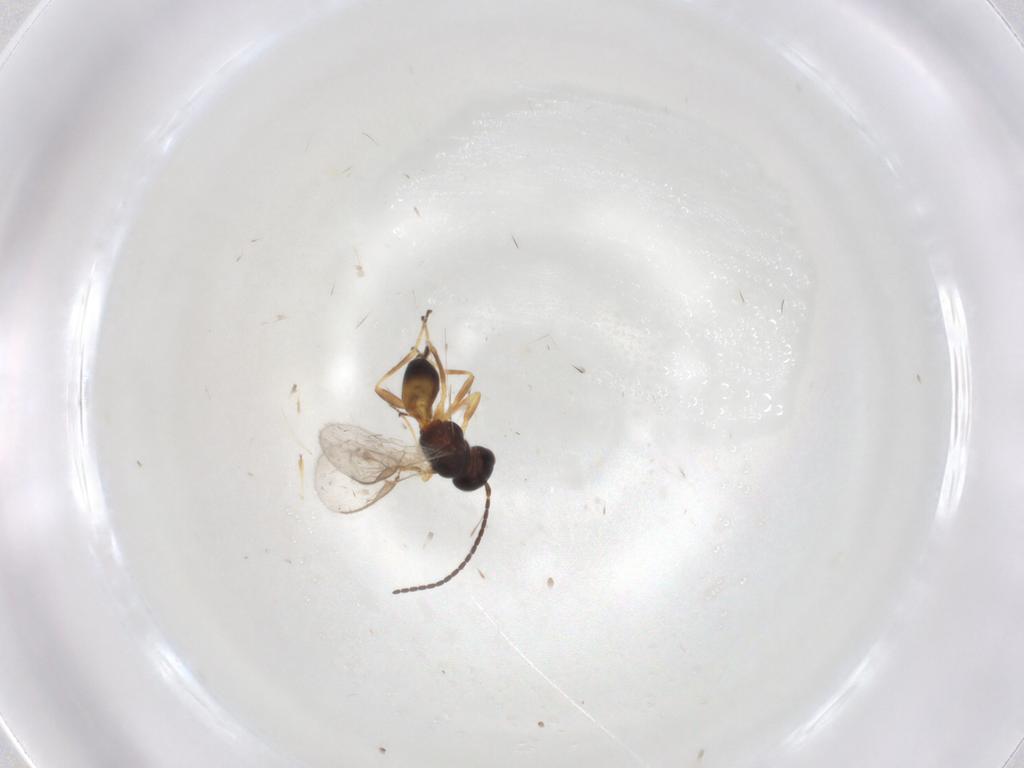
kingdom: Animalia
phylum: Arthropoda
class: Insecta
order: Hymenoptera
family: Braconidae
